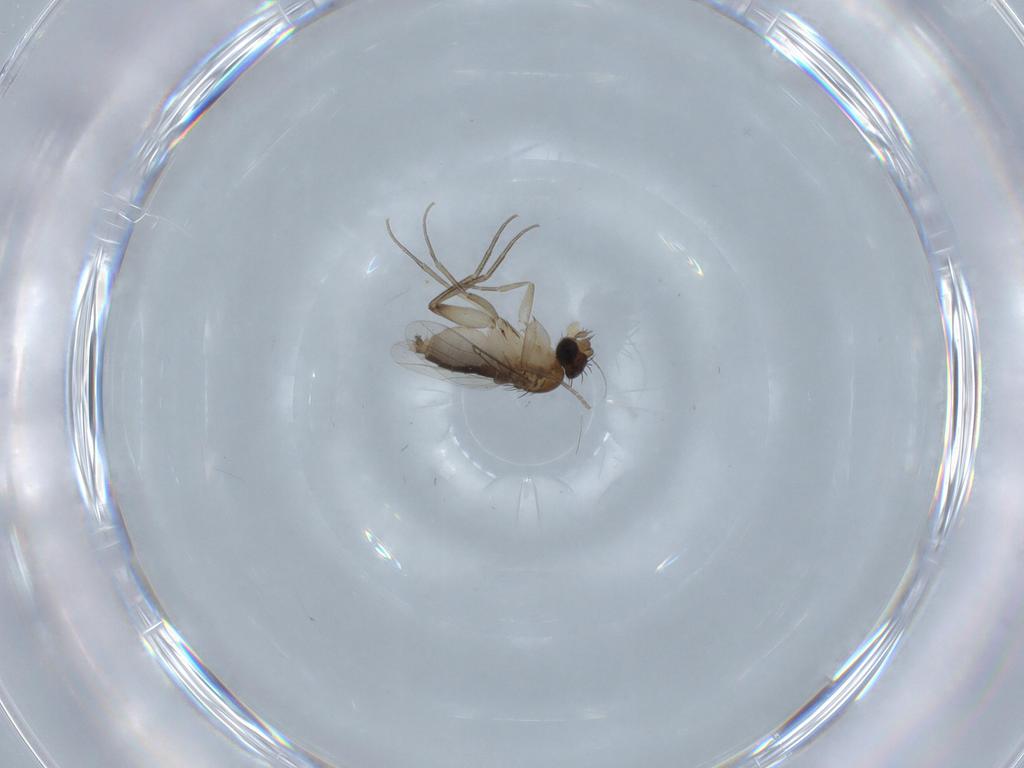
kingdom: Animalia
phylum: Arthropoda
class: Insecta
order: Diptera
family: Phoridae
